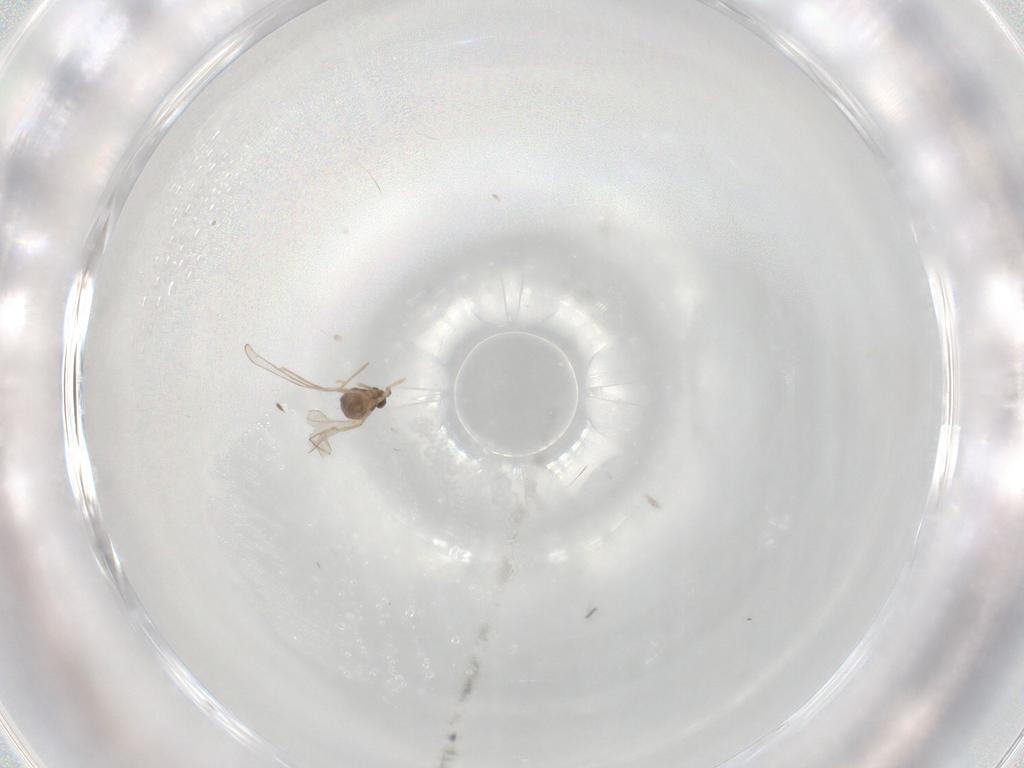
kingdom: Animalia
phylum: Arthropoda
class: Insecta
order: Diptera
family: Cecidomyiidae
